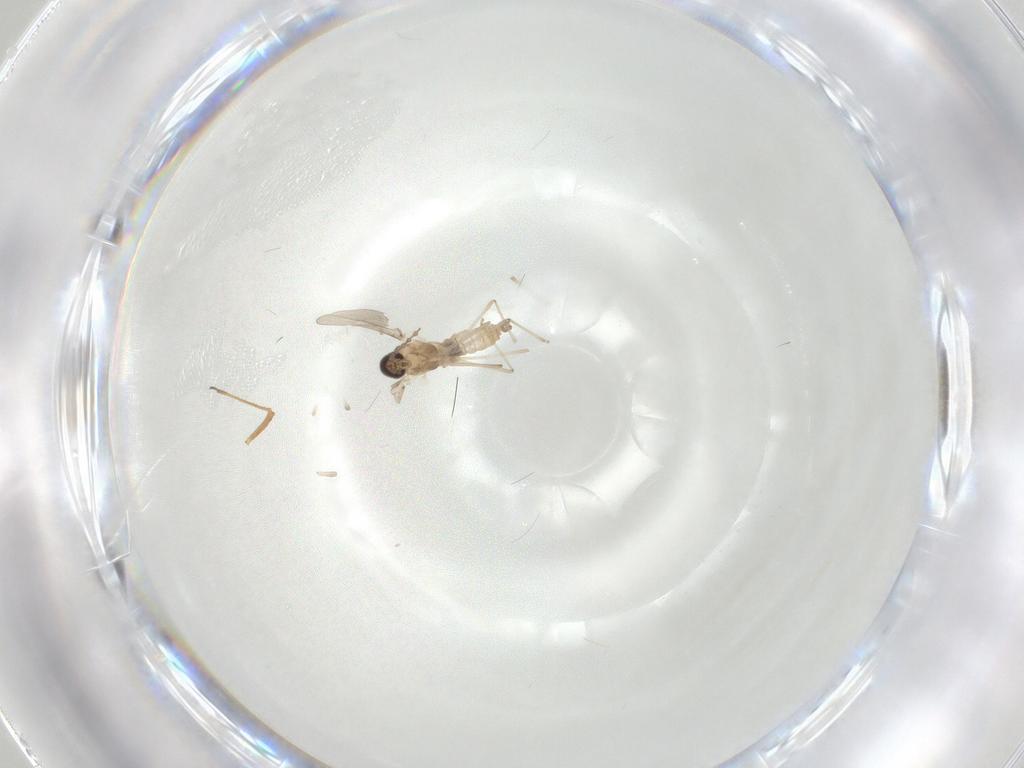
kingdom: Animalia
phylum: Arthropoda
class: Insecta
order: Diptera
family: Cecidomyiidae
